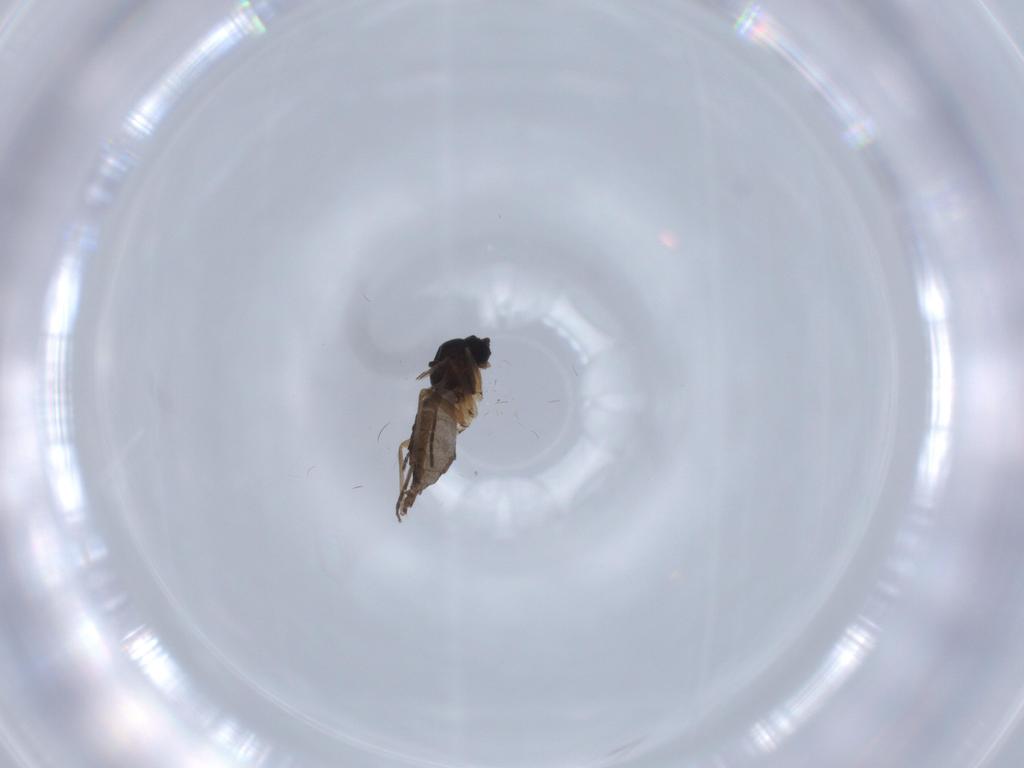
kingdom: Animalia
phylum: Arthropoda
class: Insecta
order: Diptera
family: Sciaridae
